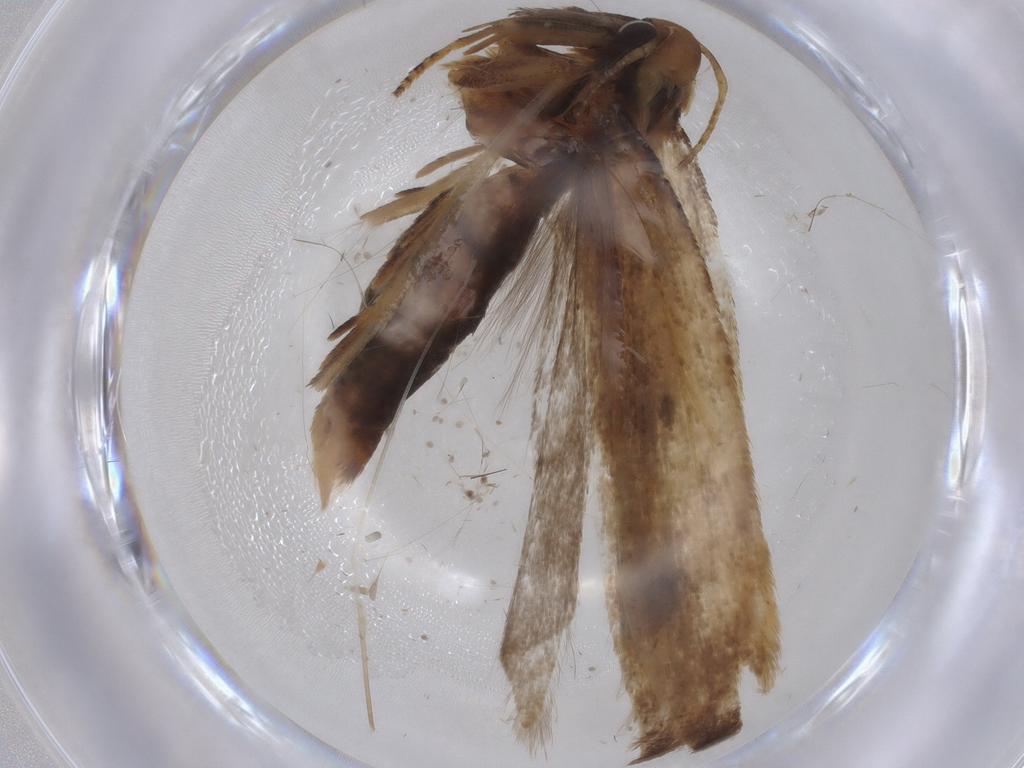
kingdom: Animalia
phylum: Arthropoda
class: Insecta
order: Lepidoptera
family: Gelechiidae
